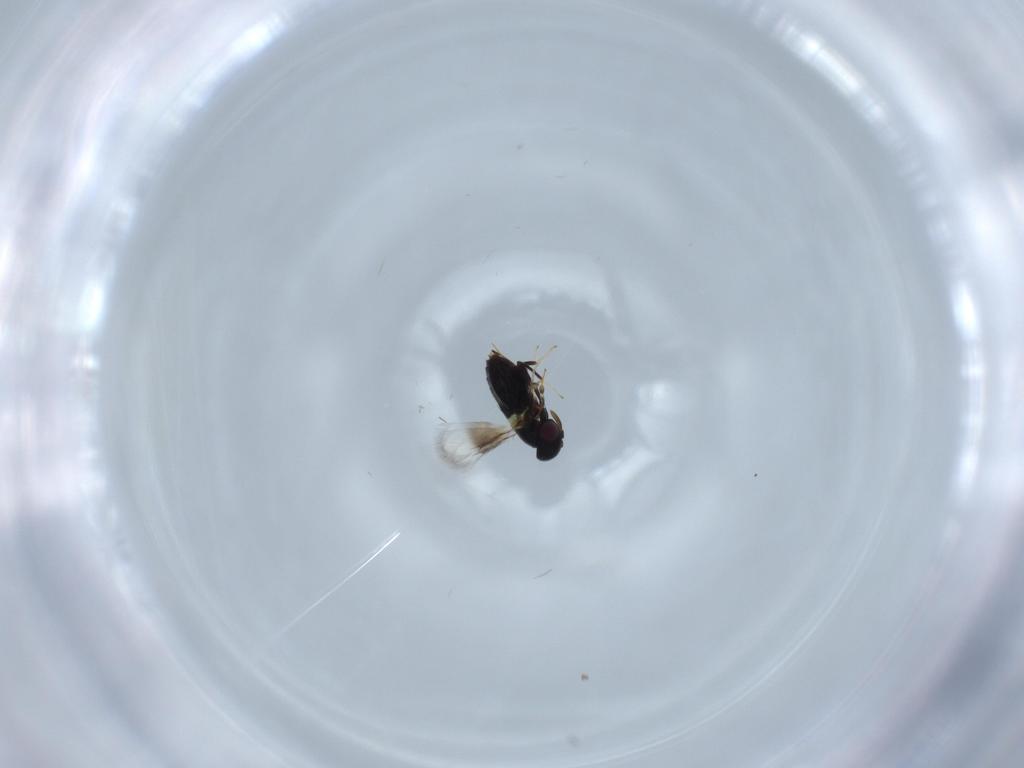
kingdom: Animalia
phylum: Arthropoda
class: Insecta
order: Hymenoptera
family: Signiphoridae
